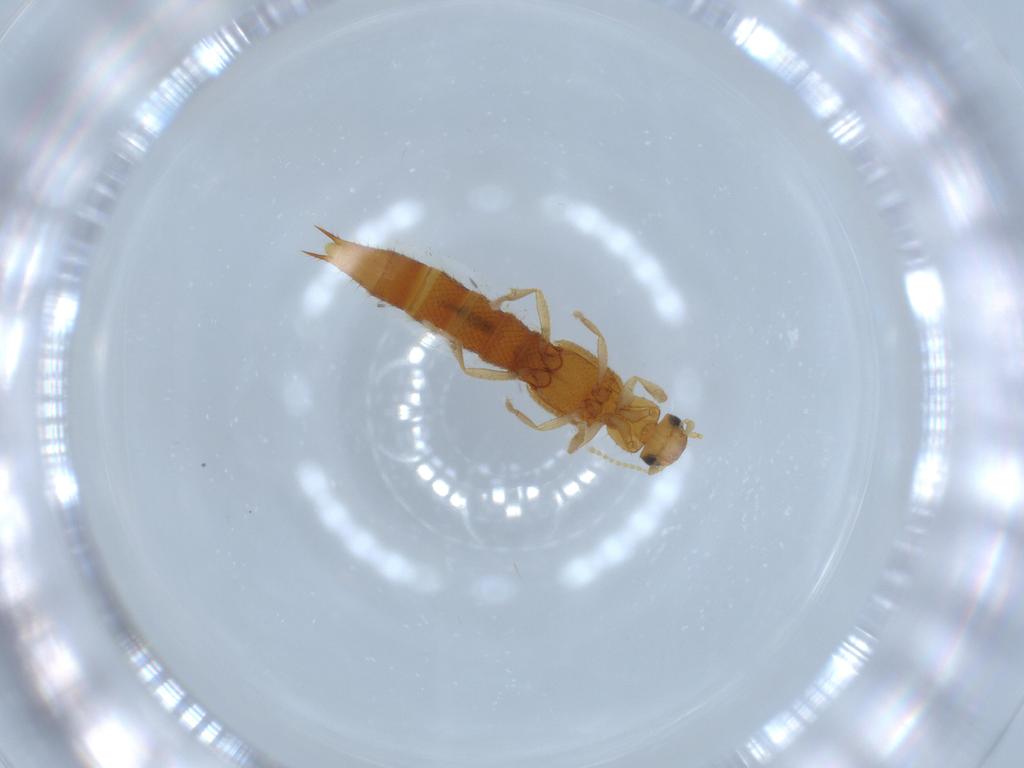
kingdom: Animalia
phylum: Arthropoda
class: Insecta
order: Coleoptera
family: Staphylinidae
